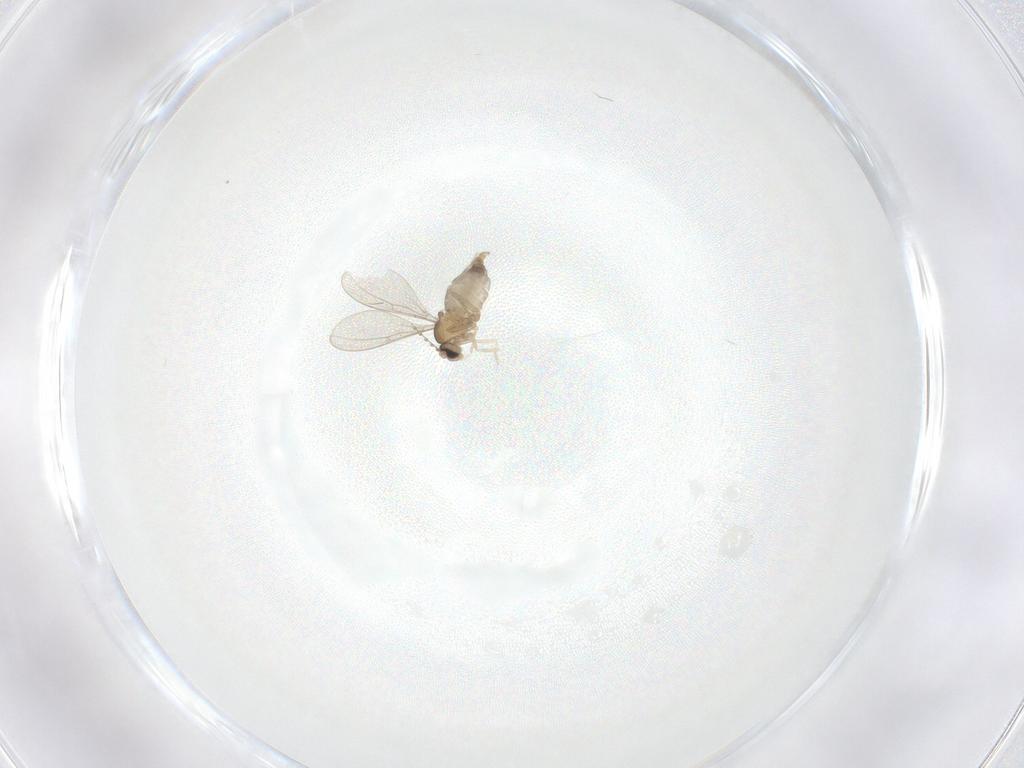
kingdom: Animalia
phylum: Arthropoda
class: Insecta
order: Diptera
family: Cecidomyiidae
